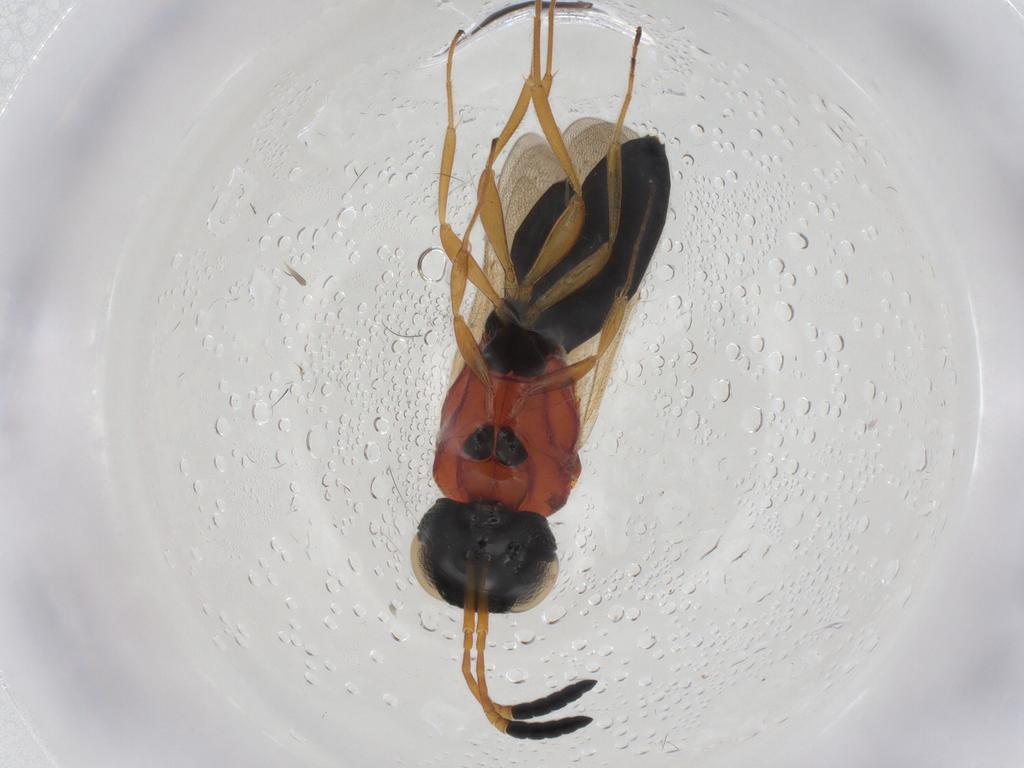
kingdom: Animalia
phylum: Arthropoda
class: Insecta
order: Hymenoptera
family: Scelionidae
